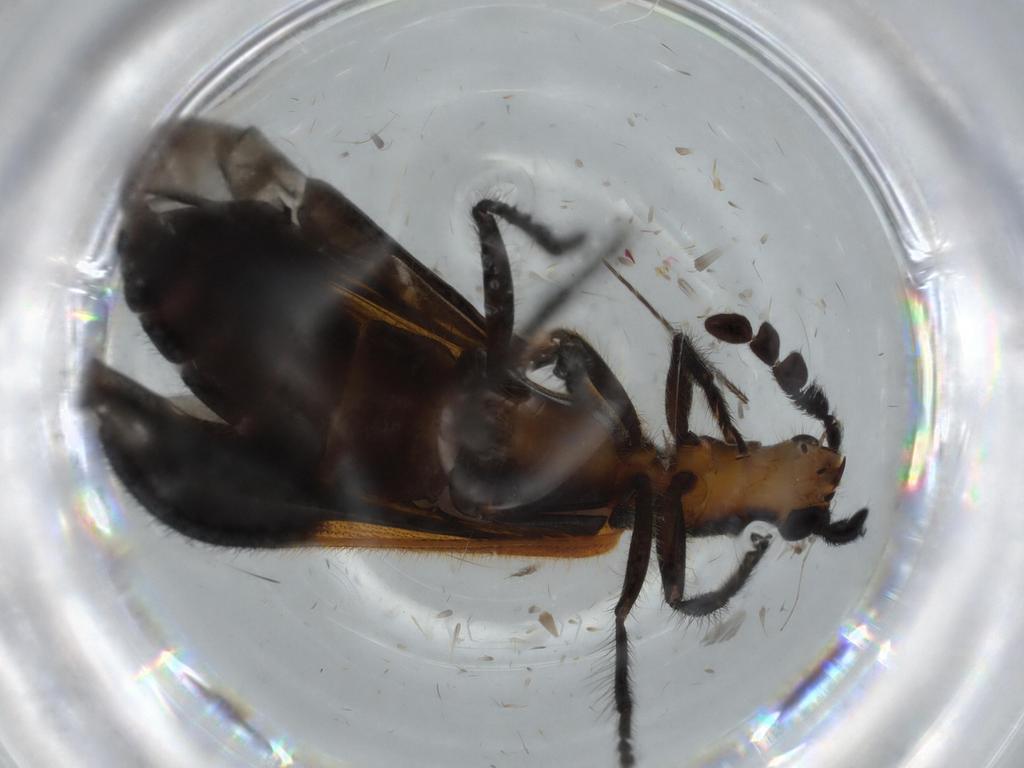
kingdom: Animalia
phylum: Arthropoda
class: Insecta
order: Coleoptera
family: Cleridae
